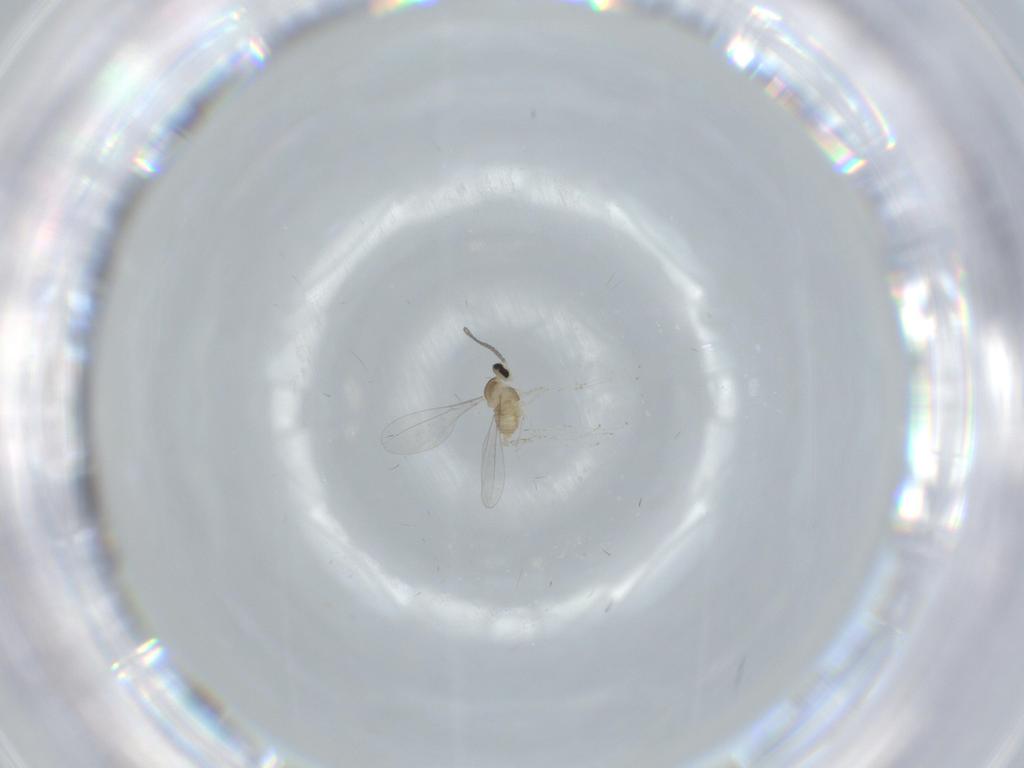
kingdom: Animalia
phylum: Arthropoda
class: Insecta
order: Diptera
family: Cecidomyiidae
